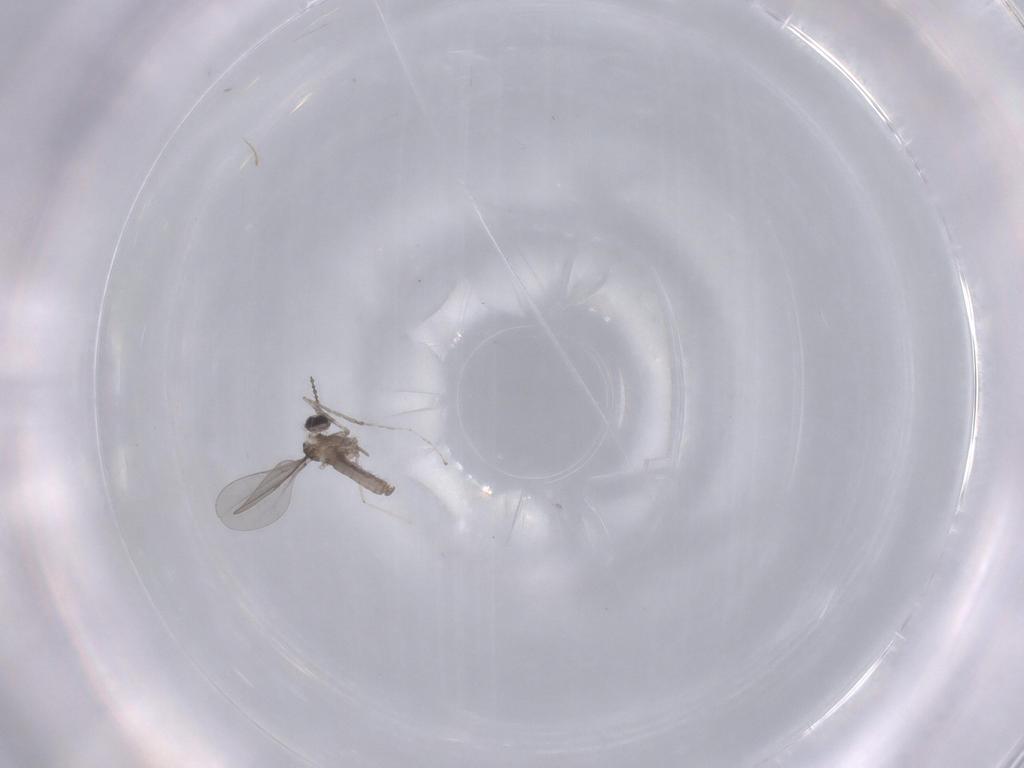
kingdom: Animalia
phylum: Arthropoda
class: Insecta
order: Diptera
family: Cecidomyiidae
